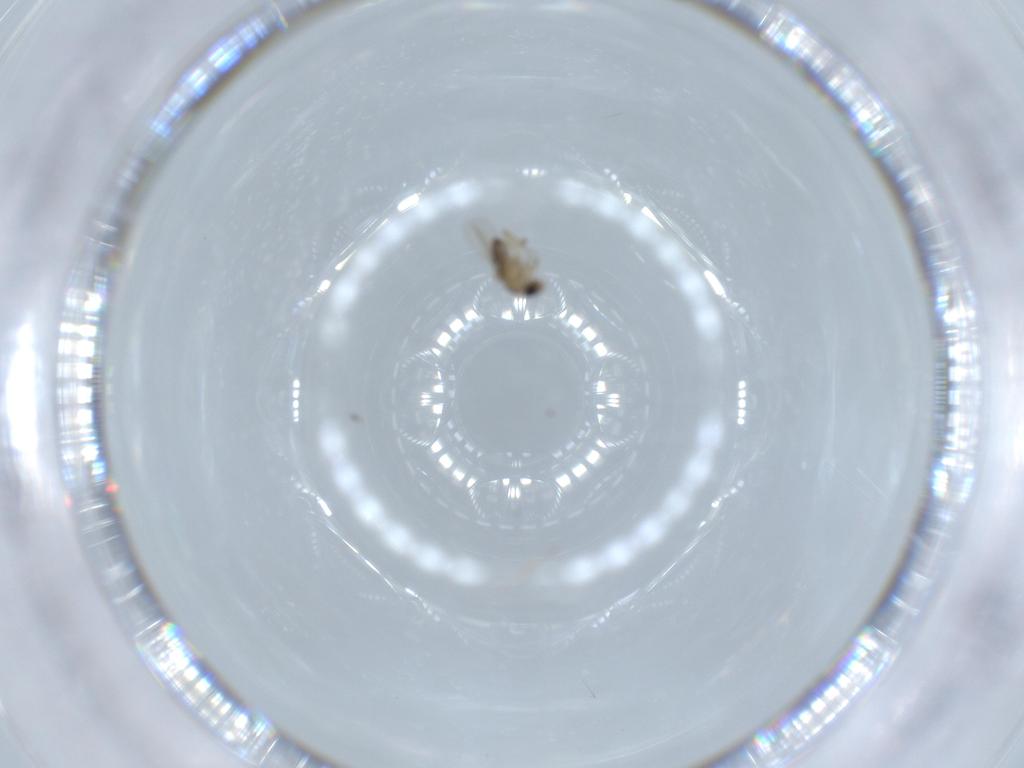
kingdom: Animalia
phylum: Arthropoda
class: Insecta
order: Diptera
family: Phoridae
